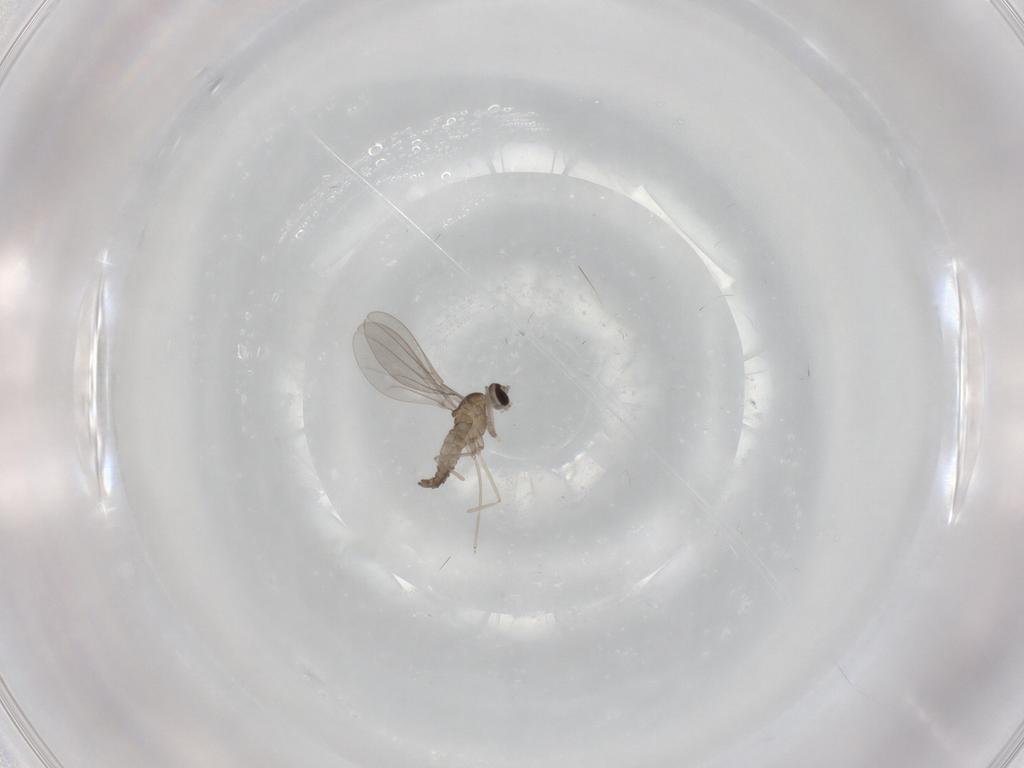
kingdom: Animalia
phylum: Arthropoda
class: Insecta
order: Diptera
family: Cecidomyiidae
